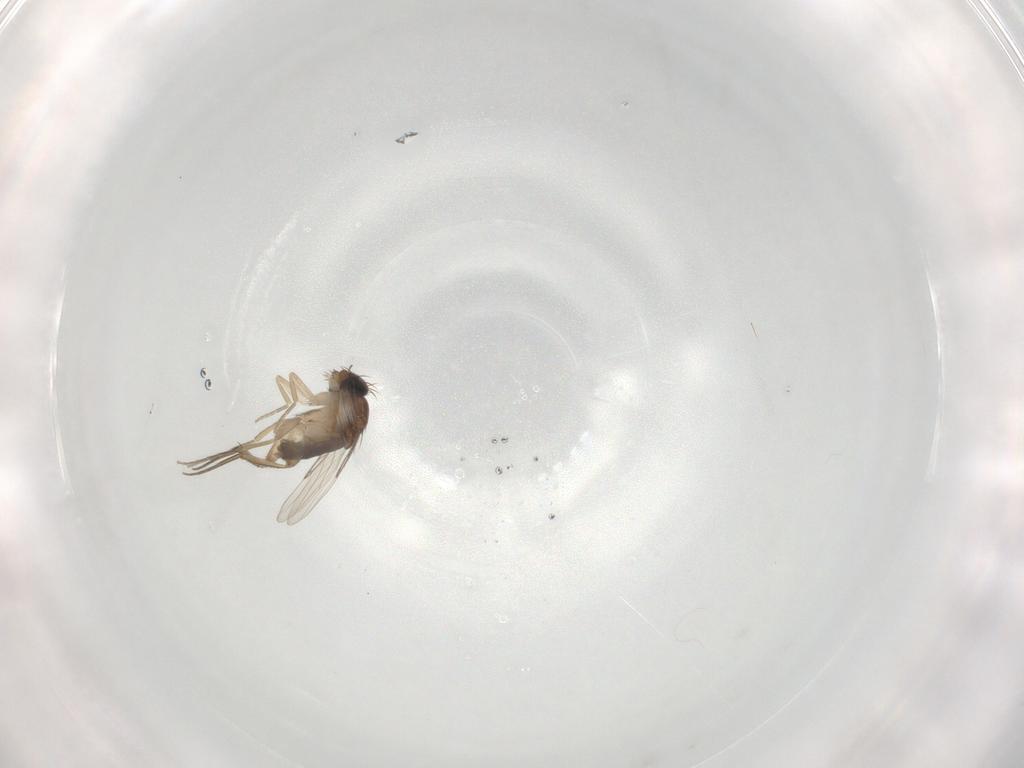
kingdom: Animalia
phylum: Arthropoda
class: Insecta
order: Diptera
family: Phoridae
